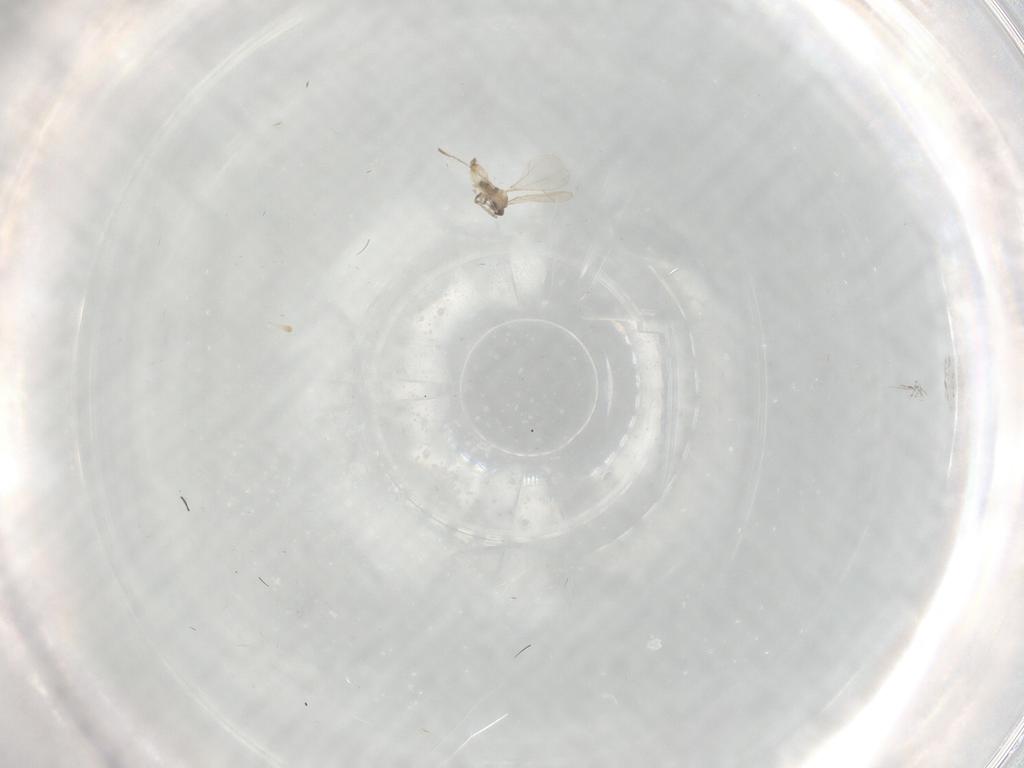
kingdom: Animalia
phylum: Arthropoda
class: Insecta
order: Diptera
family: Cecidomyiidae
